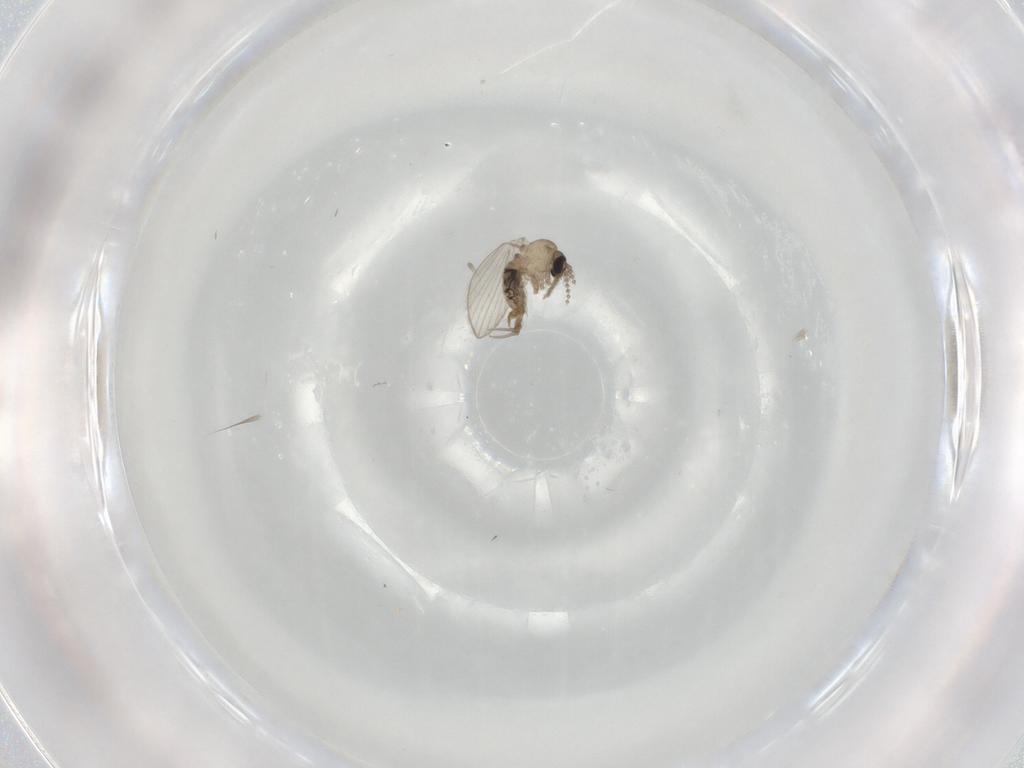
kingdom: Animalia
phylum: Arthropoda
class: Insecta
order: Diptera
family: Psychodidae
